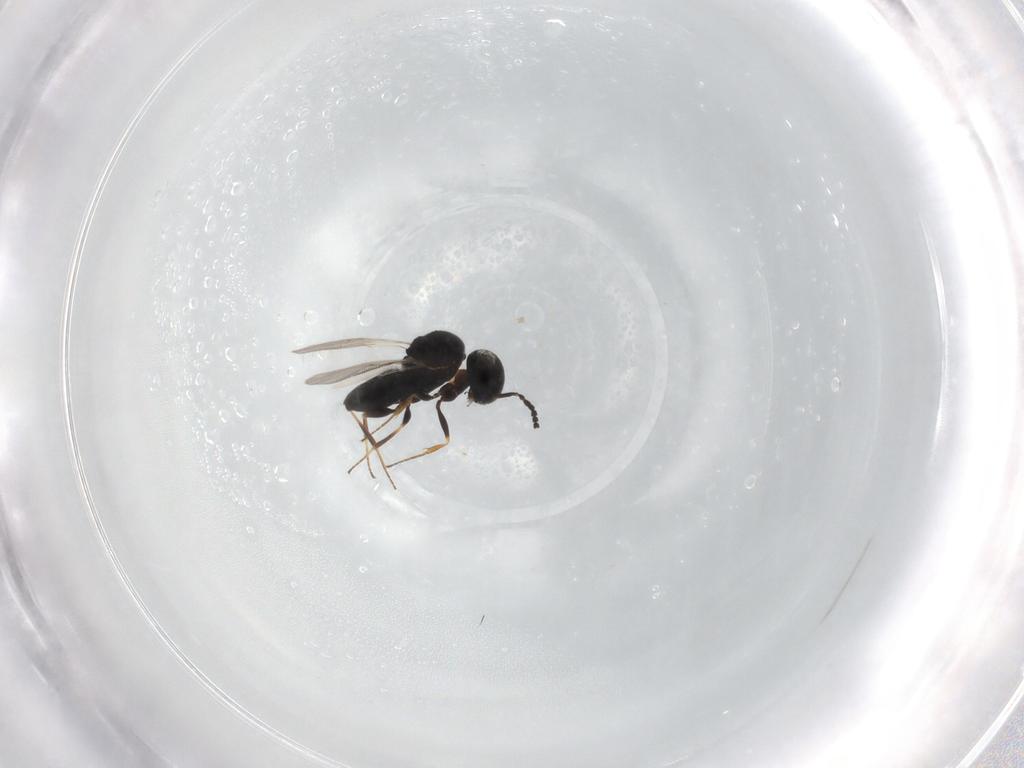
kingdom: Animalia
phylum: Arthropoda
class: Insecta
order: Hymenoptera
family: Scelionidae
